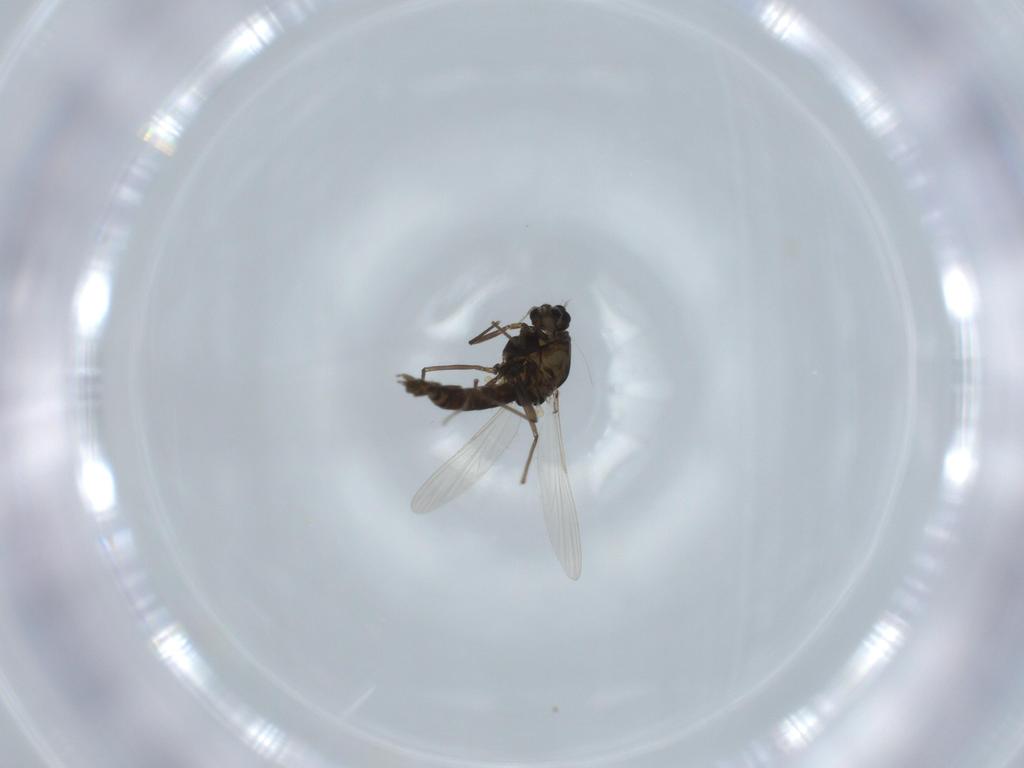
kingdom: Animalia
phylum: Arthropoda
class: Insecta
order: Diptera
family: Chironomidae
